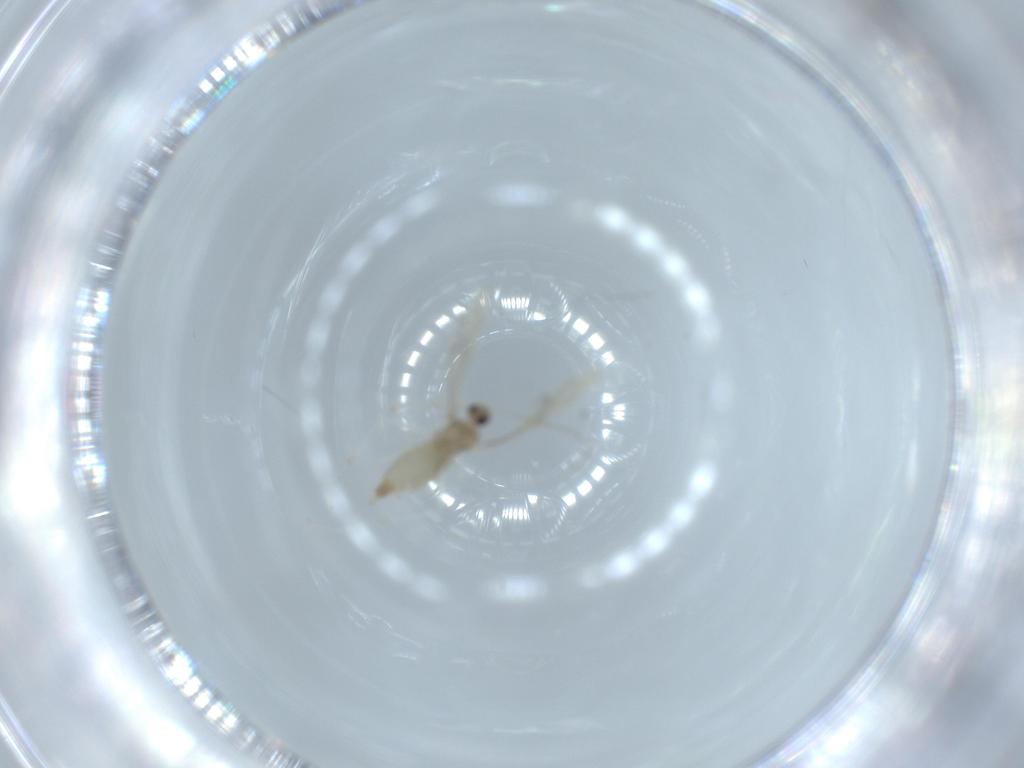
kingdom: Animalia
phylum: Arthropoda
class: Insecta
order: Diptera
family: Cecidomyiidae
